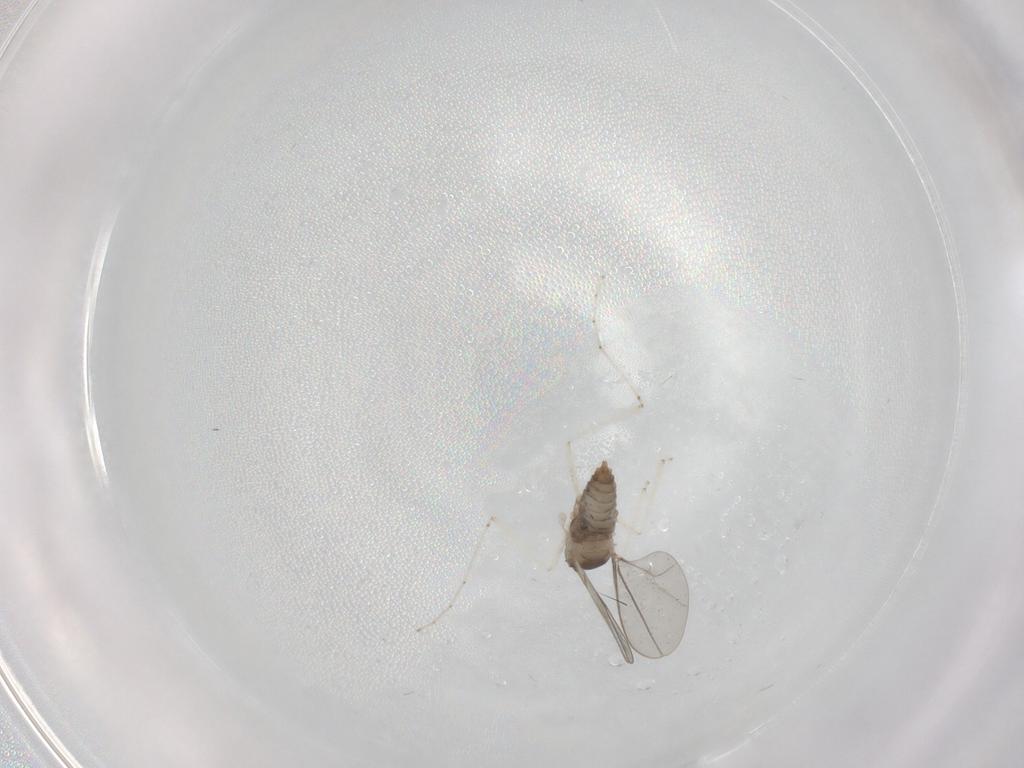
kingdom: Animalia
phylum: Arthropoda
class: Insecta
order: Diptera
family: Cecidomyiidae
